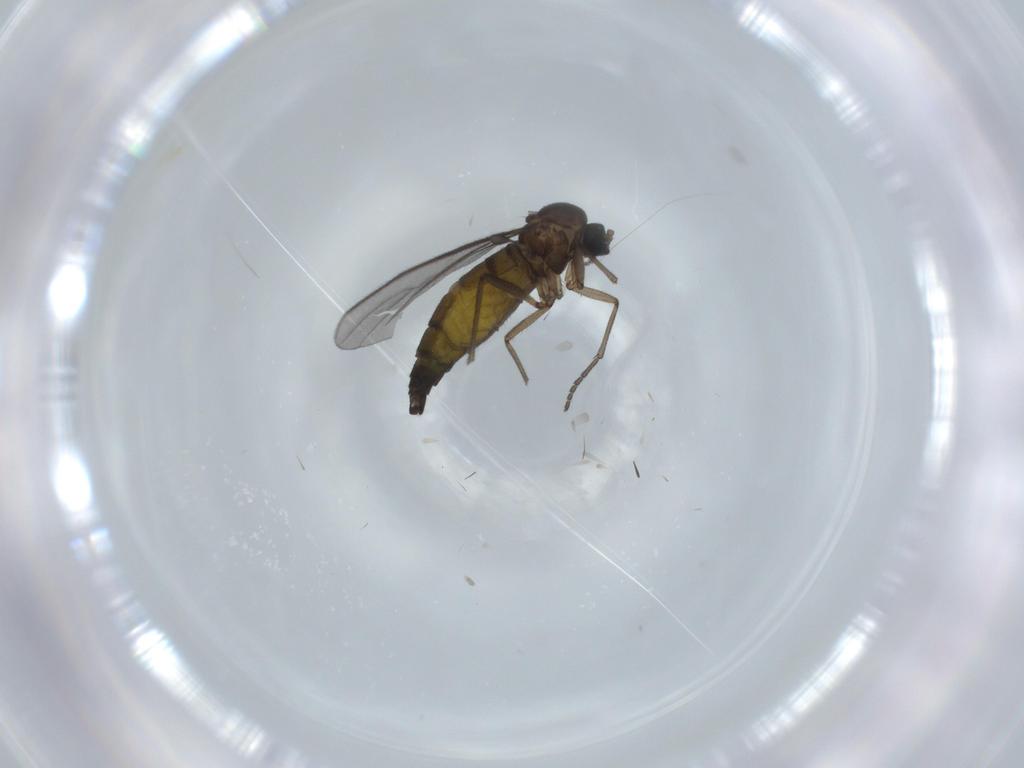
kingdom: Animalia
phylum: Arthropoda
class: Insecta
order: Diptera
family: Sciaridae
